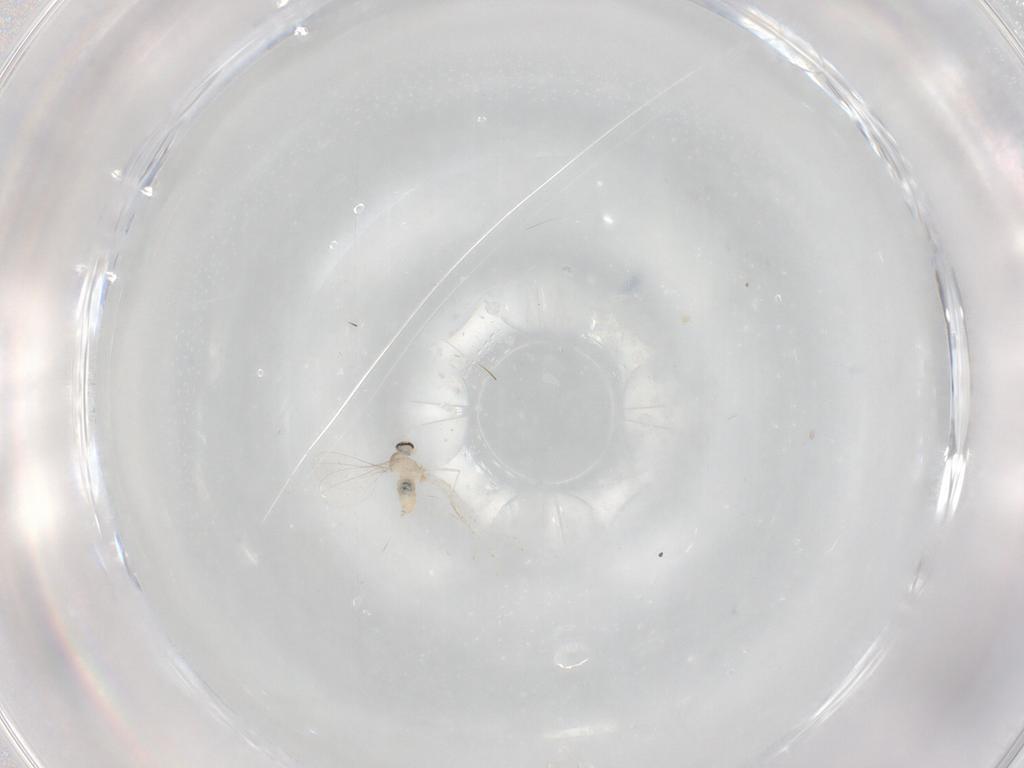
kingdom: Animalia
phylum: Arthropoda
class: Insecta
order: Diptera
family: Cecidomyiidae
